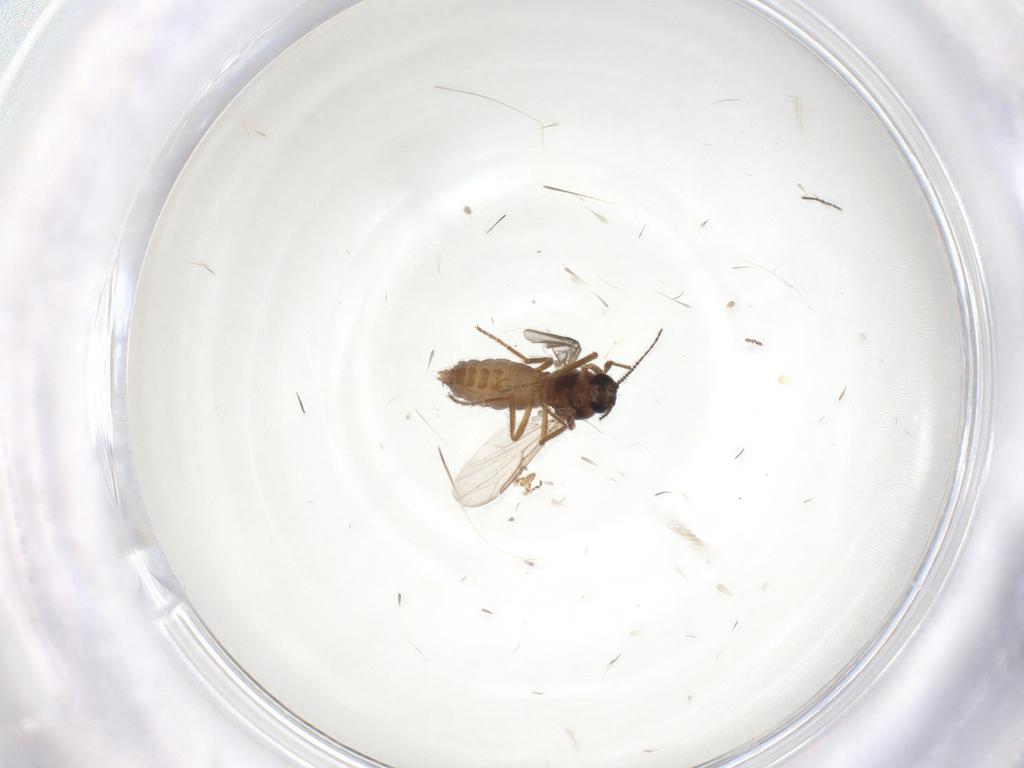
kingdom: Animalia
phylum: Arthropoda
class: Insecta
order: Diptera
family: Ceratopogonidae
